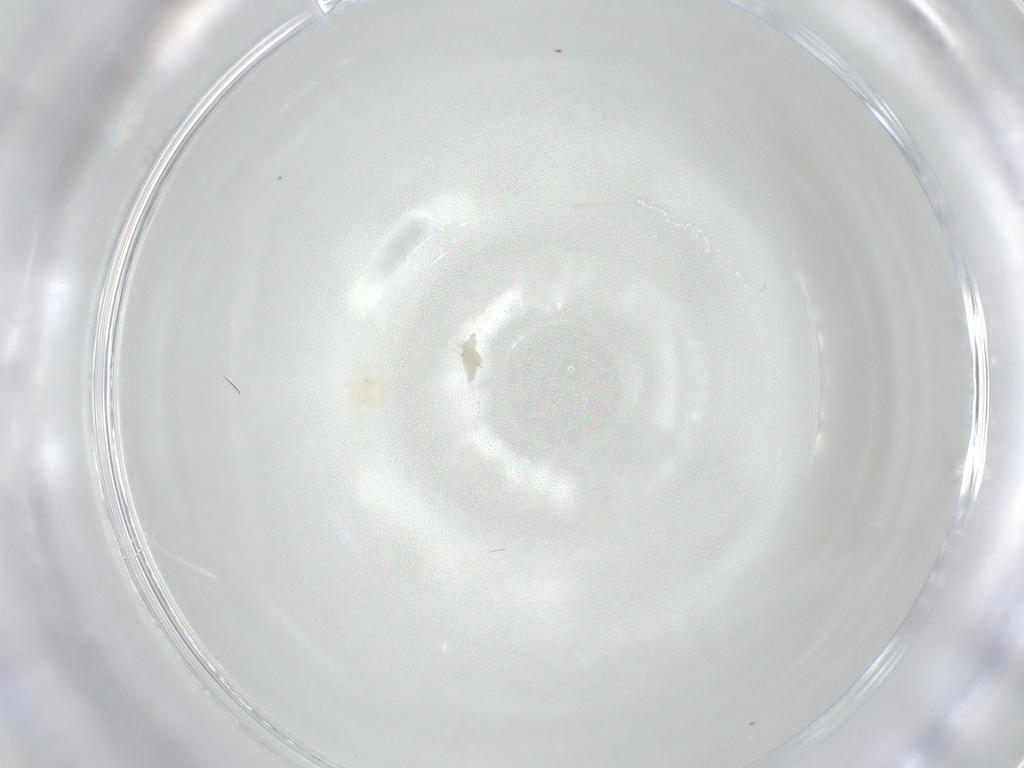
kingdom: Animalia
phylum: Arthropoda
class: Arachnida
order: Trombidiformes
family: Anystidae
